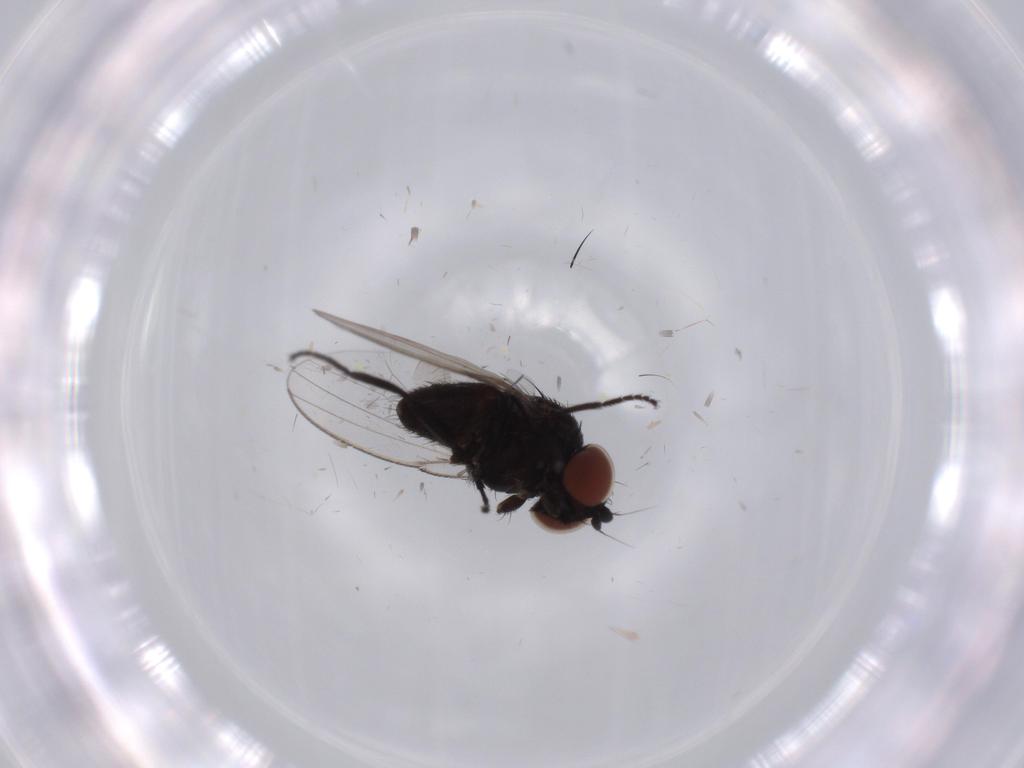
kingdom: Animalia
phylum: Arthropoda
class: Insecta
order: Diptera
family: Milichiidae
